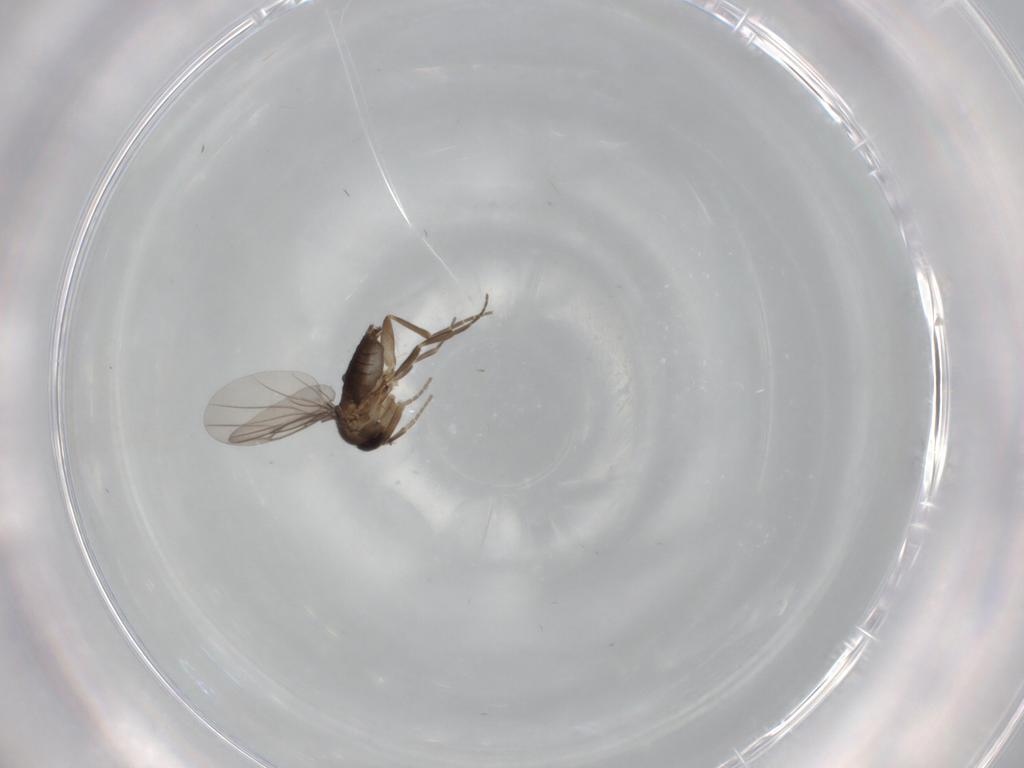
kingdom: Animalia
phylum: Arthropoda
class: Insecta
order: Diptera
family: Phoridae
